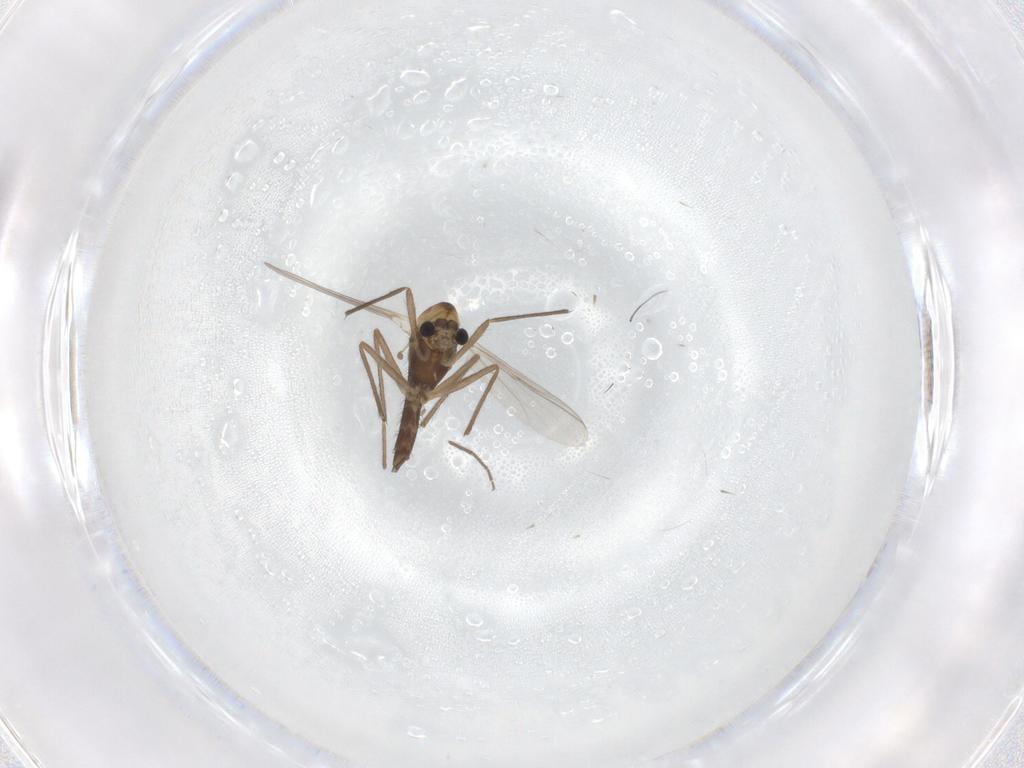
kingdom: Animalia
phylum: Arthropoda
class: Insecta
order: Diptera
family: Chironomidae
